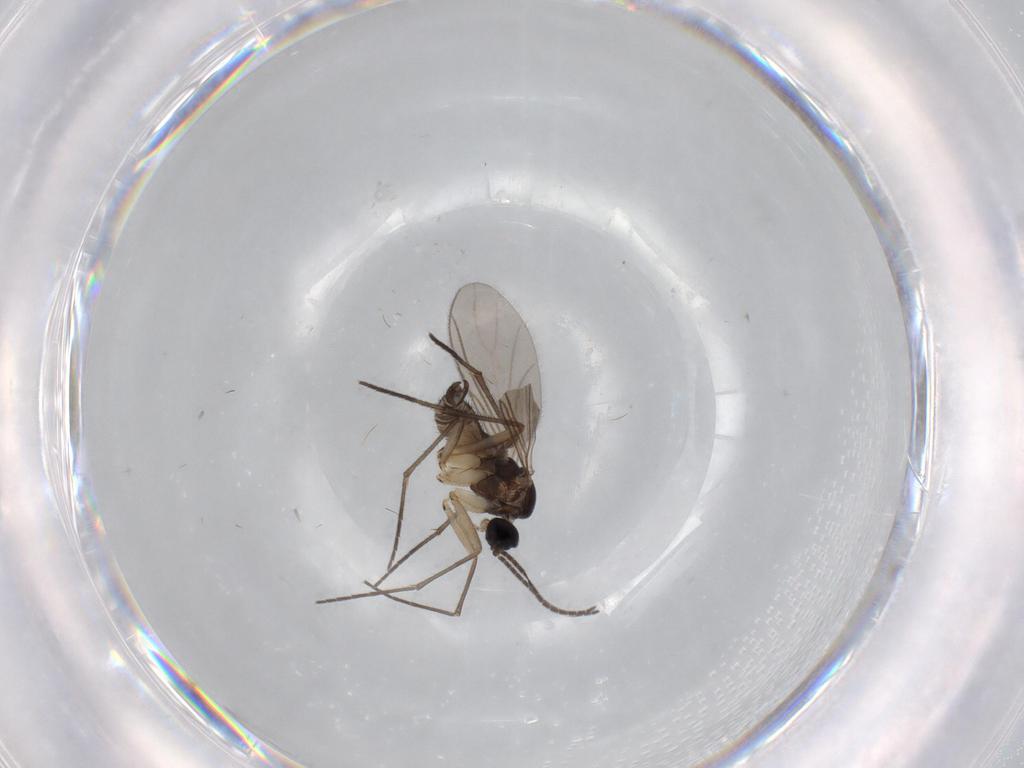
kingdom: Animalia
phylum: Arthropoda
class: Insecta
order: Diptera
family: Sciaridae
